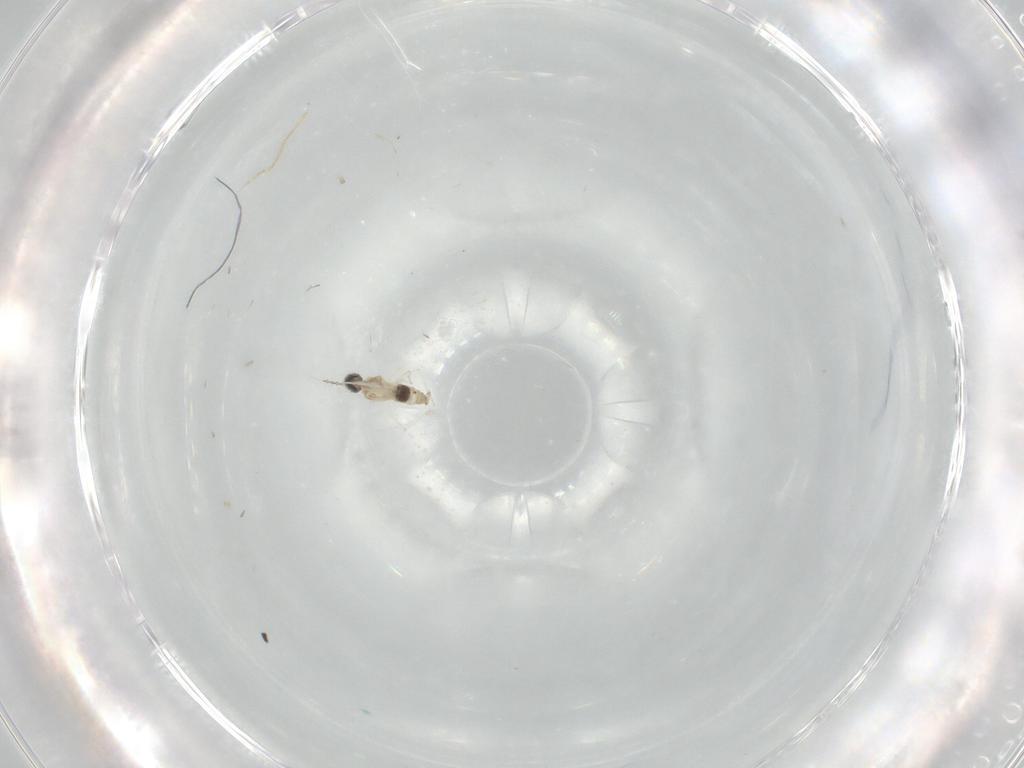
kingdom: Animalia
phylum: Arthropoda
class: Insecta
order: Diptera
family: Cecidomyiidae
